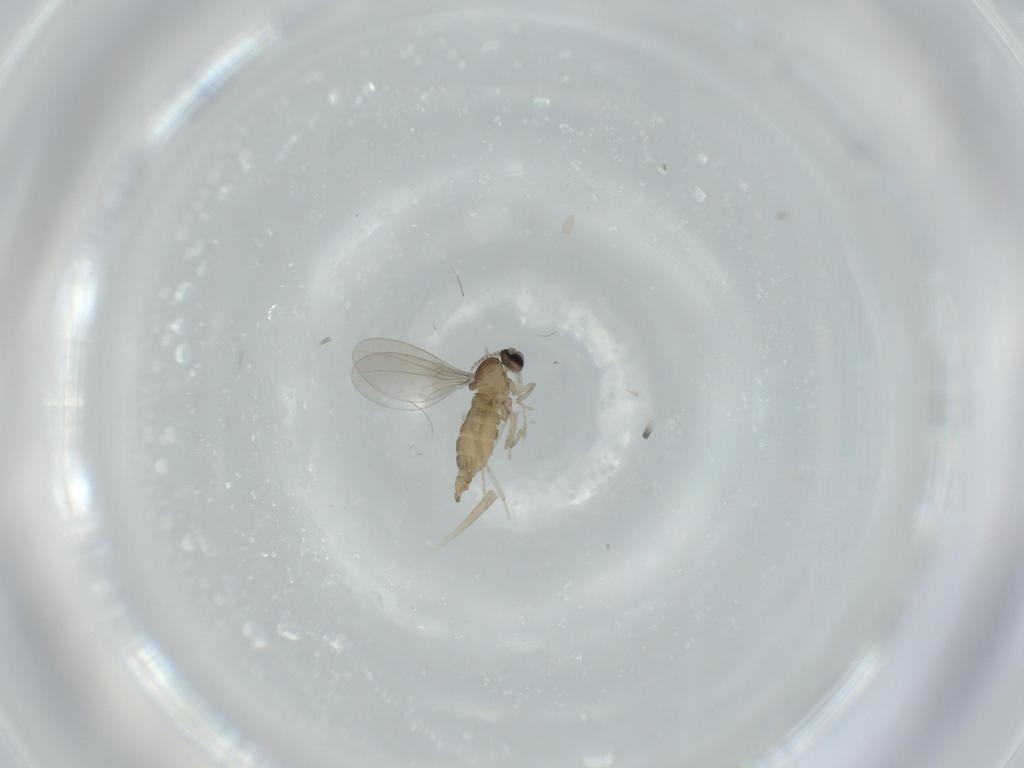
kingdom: Animalia
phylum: Arthropoda
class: Insecta
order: Diptera
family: Cecidomyiidae
